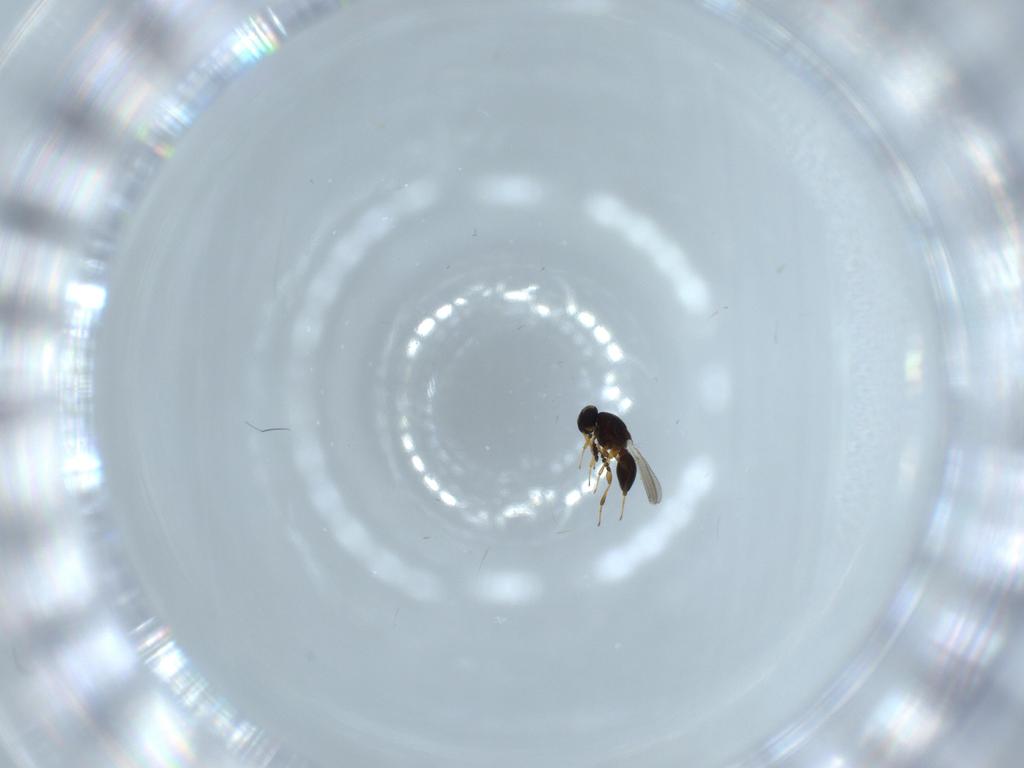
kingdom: Animalia
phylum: Arthropoda
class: Insecta
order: Hymenoptera
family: Platygastridae
